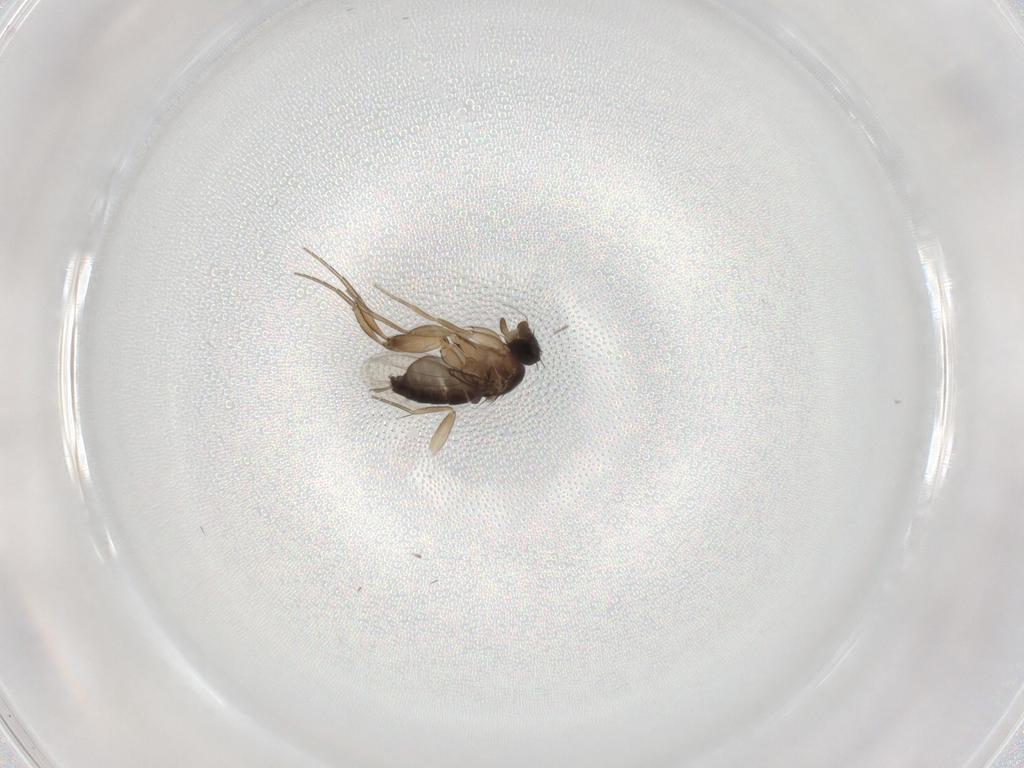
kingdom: Animalia
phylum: Arthropoda
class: Insecta
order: Diptera
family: Phoridae
